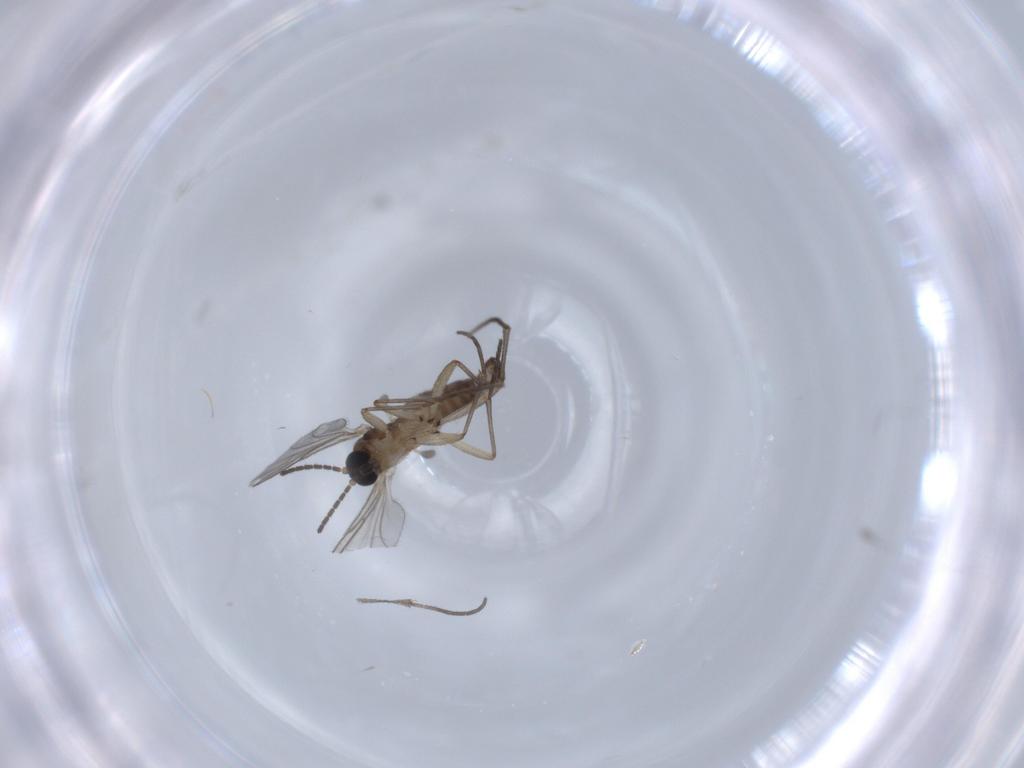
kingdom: Animalia
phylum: Arthropoda
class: Insecta
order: Diptera
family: Sciaridae
